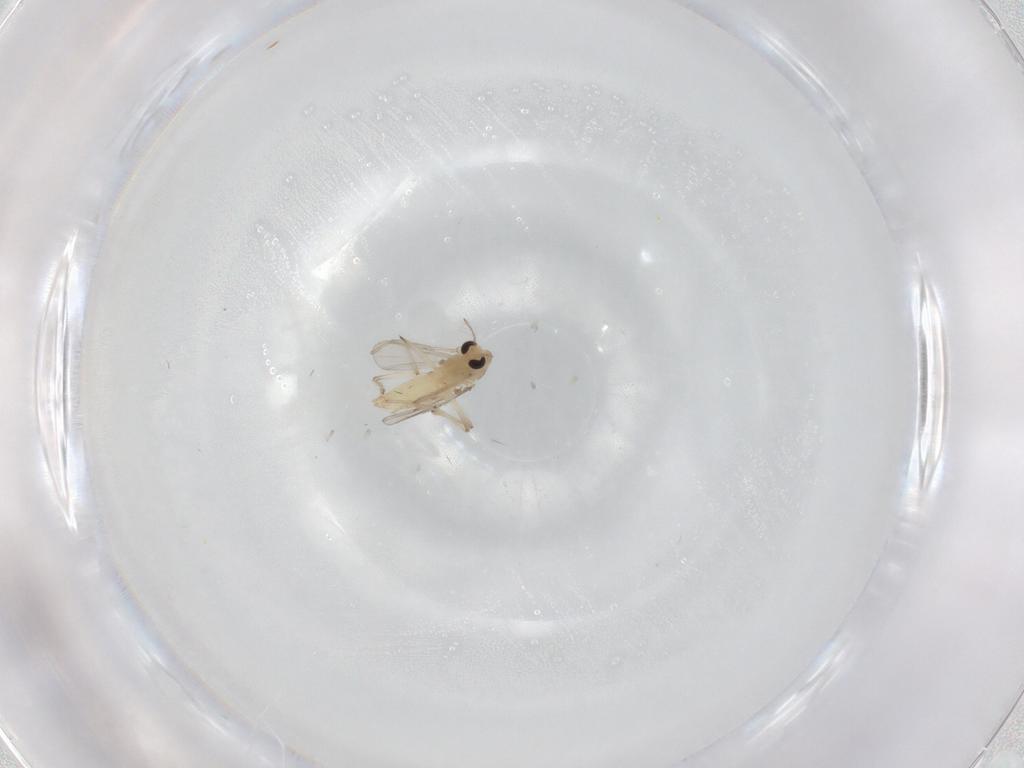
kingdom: Animalia
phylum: Arthropoda
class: Insecta
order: Diptera
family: Chironomidae
